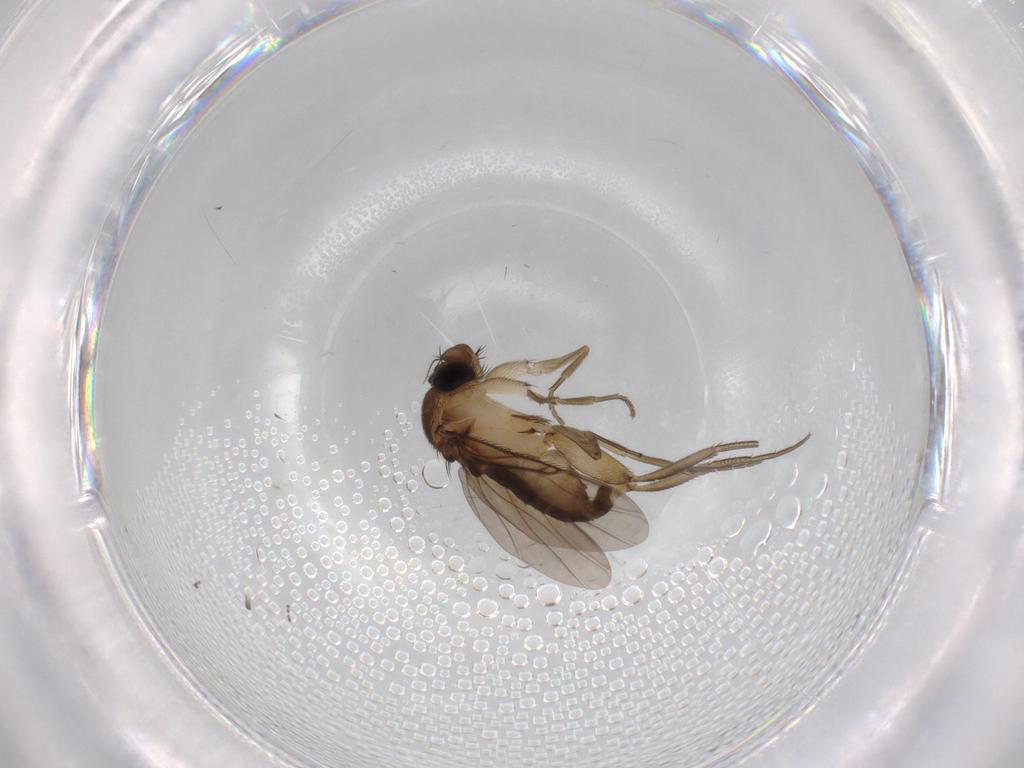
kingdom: Animalia
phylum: Arthropoda
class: Insecta
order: Diptera
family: Phoridae
